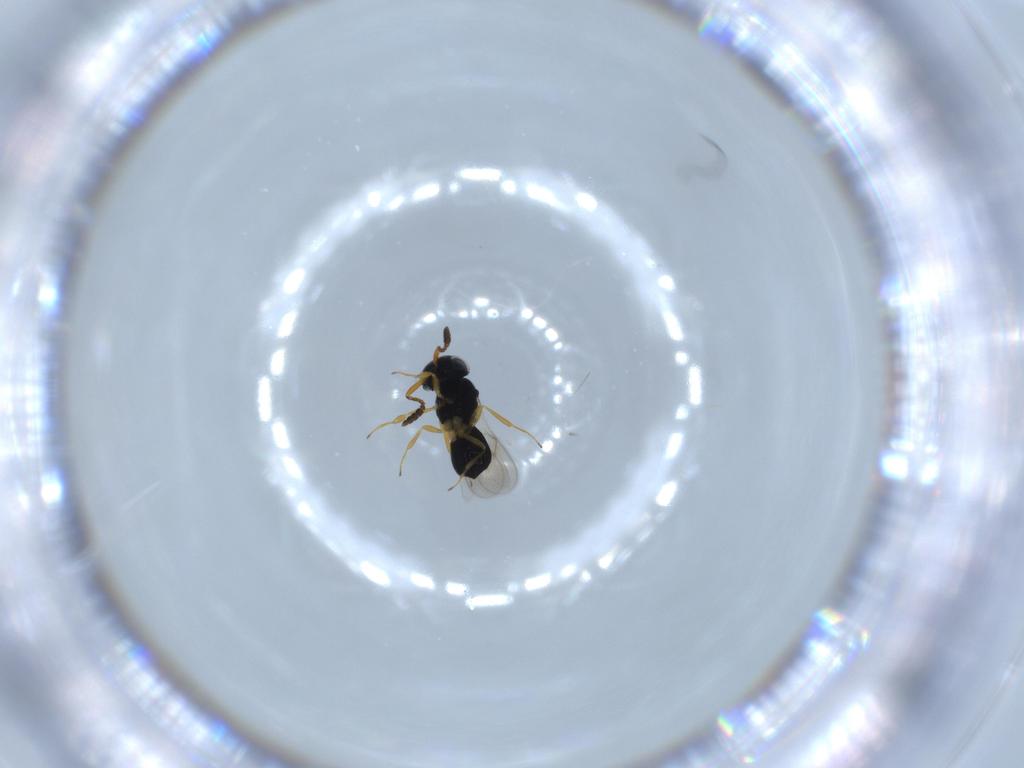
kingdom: Animalia
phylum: Arthropoda
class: Insecta
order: Hymenoptera
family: Scelionidae
